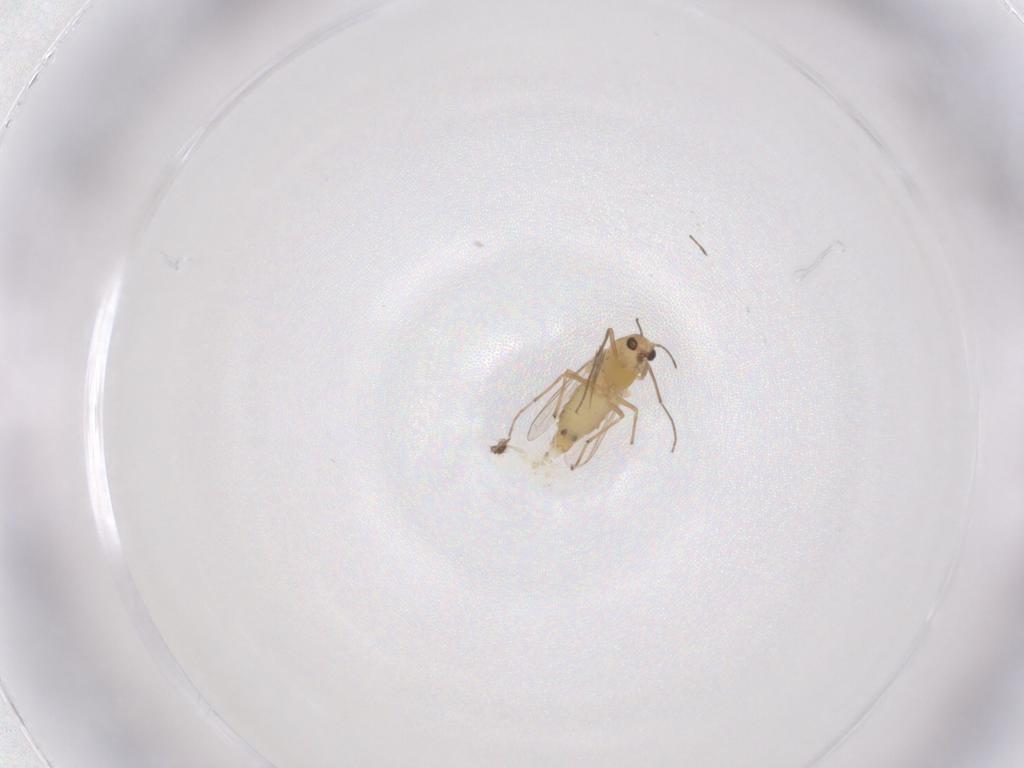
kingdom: Animalia
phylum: Arthropoda
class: Insecta
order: Diptera
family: Chironomidae
